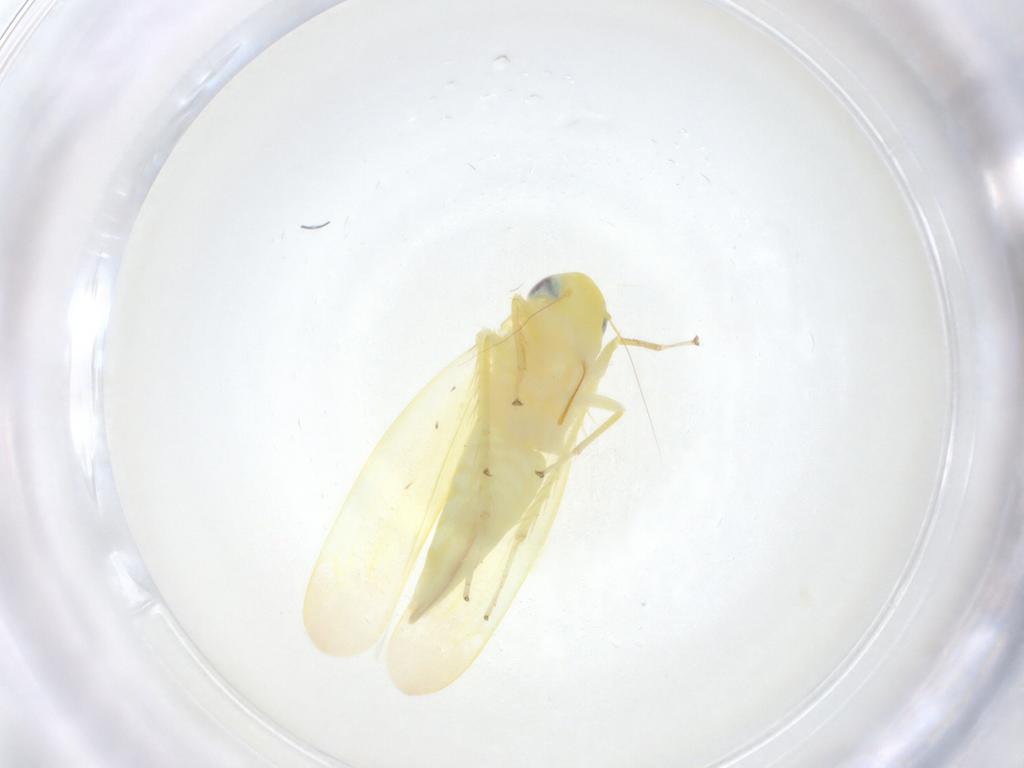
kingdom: Animalia
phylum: Arthropoda
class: Insecta
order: Hemiptera
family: Cicadellidae
